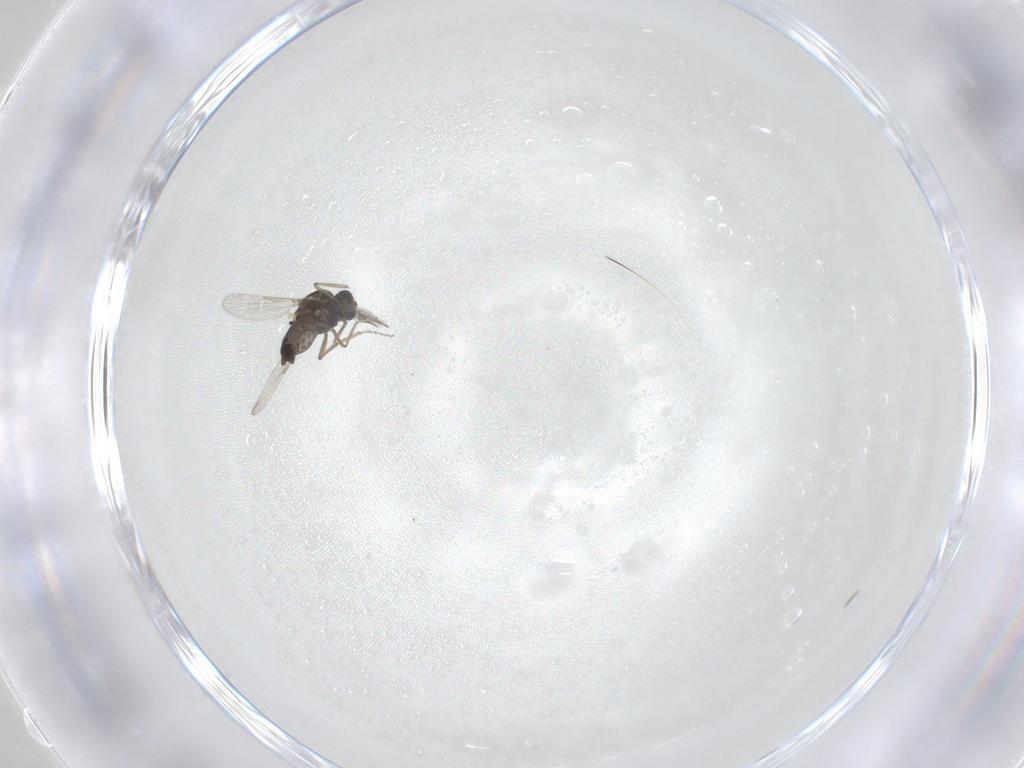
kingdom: Animalia
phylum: Arthropoda
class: Insecta
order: Diptera
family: Ceratopogonidae
